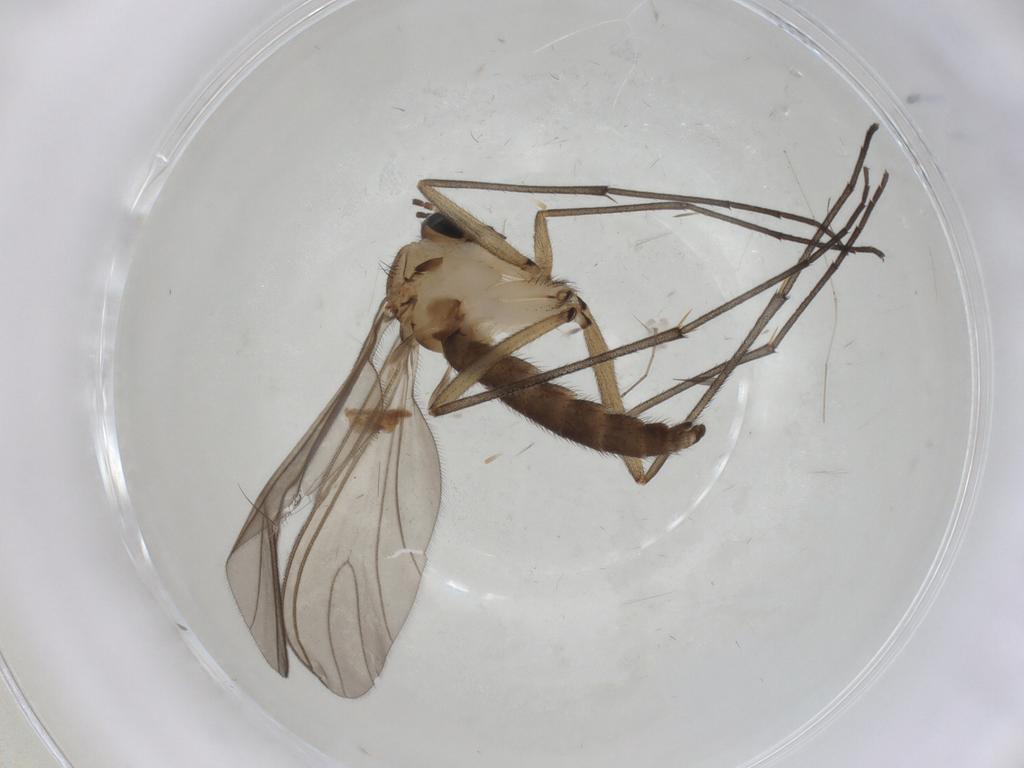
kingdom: Animalia
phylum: Arthropoda
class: Insecta
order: Diptera
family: Sciaridae
